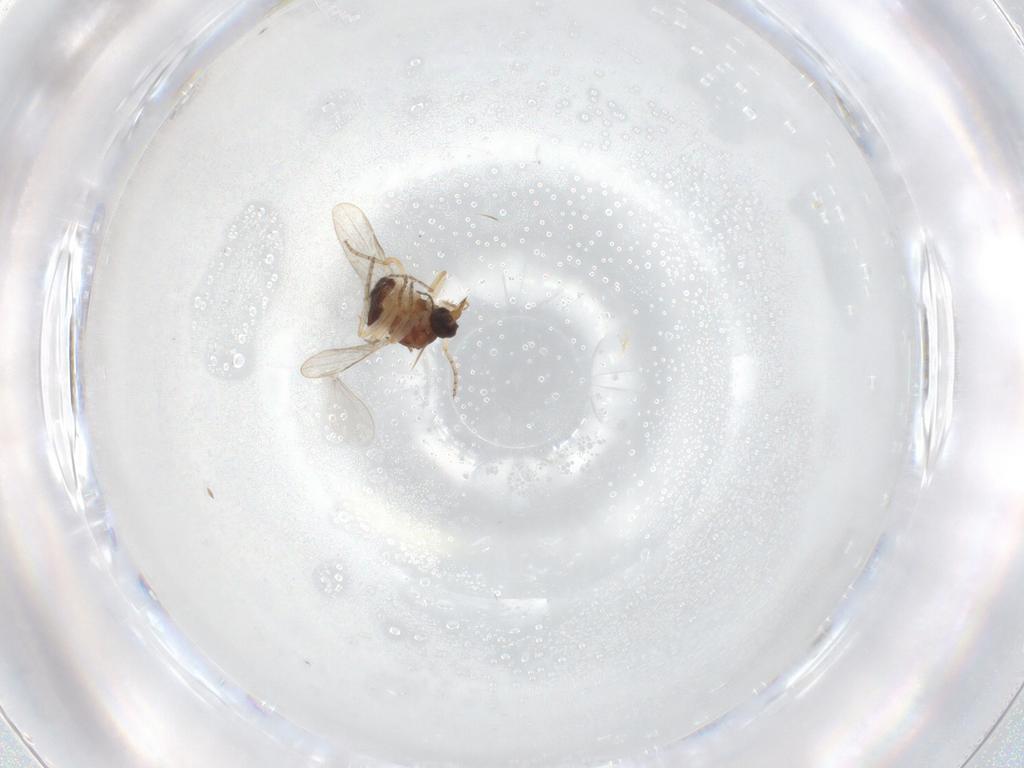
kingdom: Animalia
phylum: Arthropoda
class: Insecta
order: Diptera
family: Ceratopogonidae
